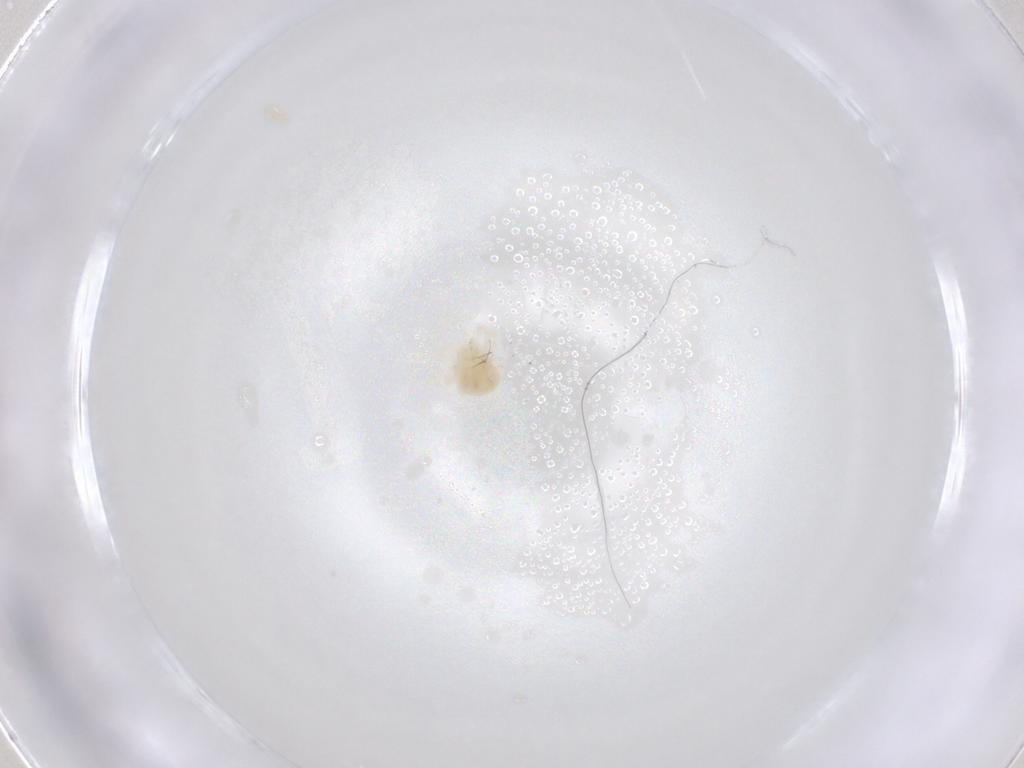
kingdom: Animalia
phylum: Arthropoda
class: Arachnida
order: Trombidiformes
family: Anystidae
